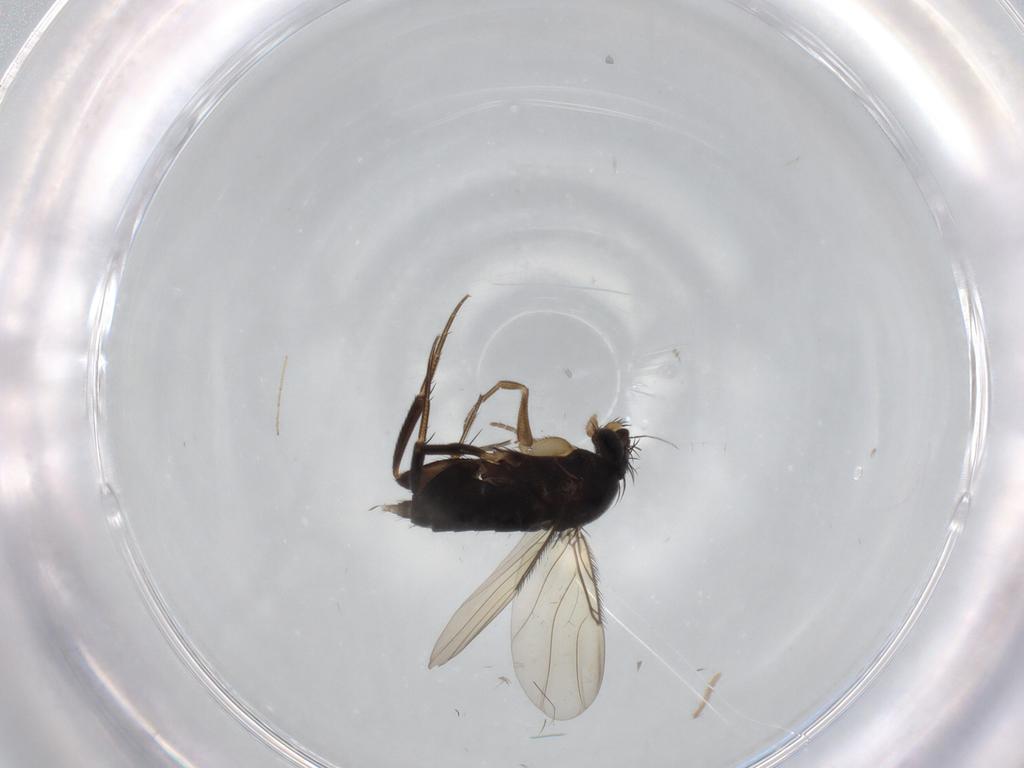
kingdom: Animalia
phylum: Arthropoda
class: Insecta
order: Diptera
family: Phoridae
